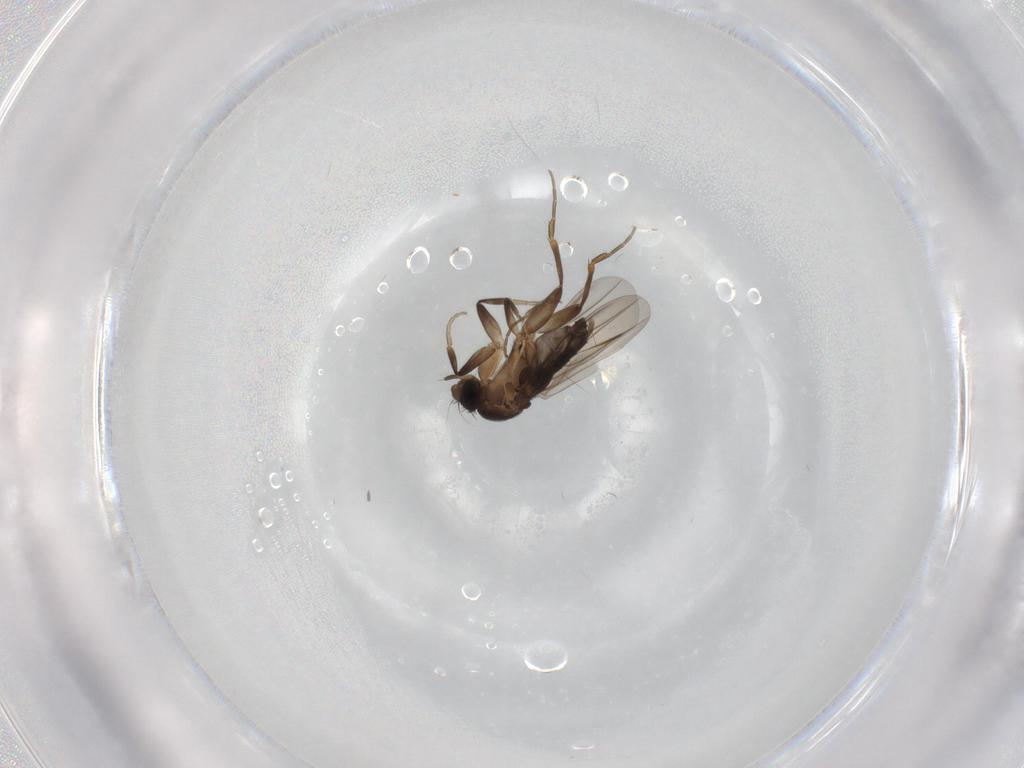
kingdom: Animalia
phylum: Arthropoda
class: Insecta
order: Diptera
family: Phoridae
